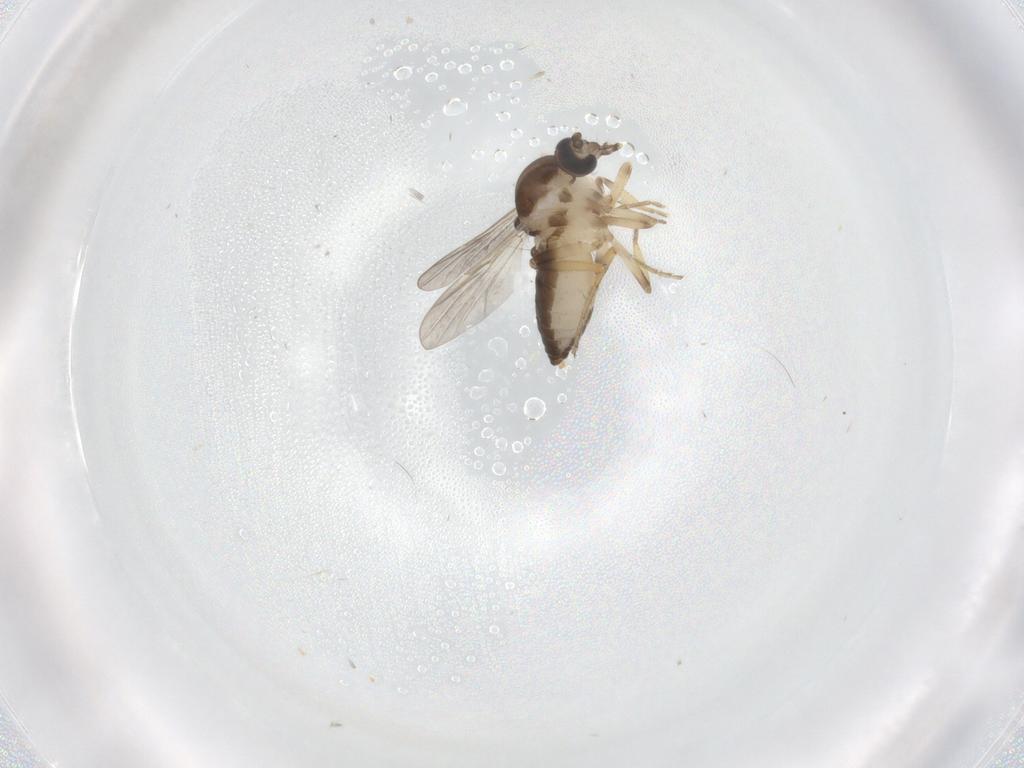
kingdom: Animalia
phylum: Arthropoda
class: Insecta
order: Diptera
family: Ceratopogonidae
